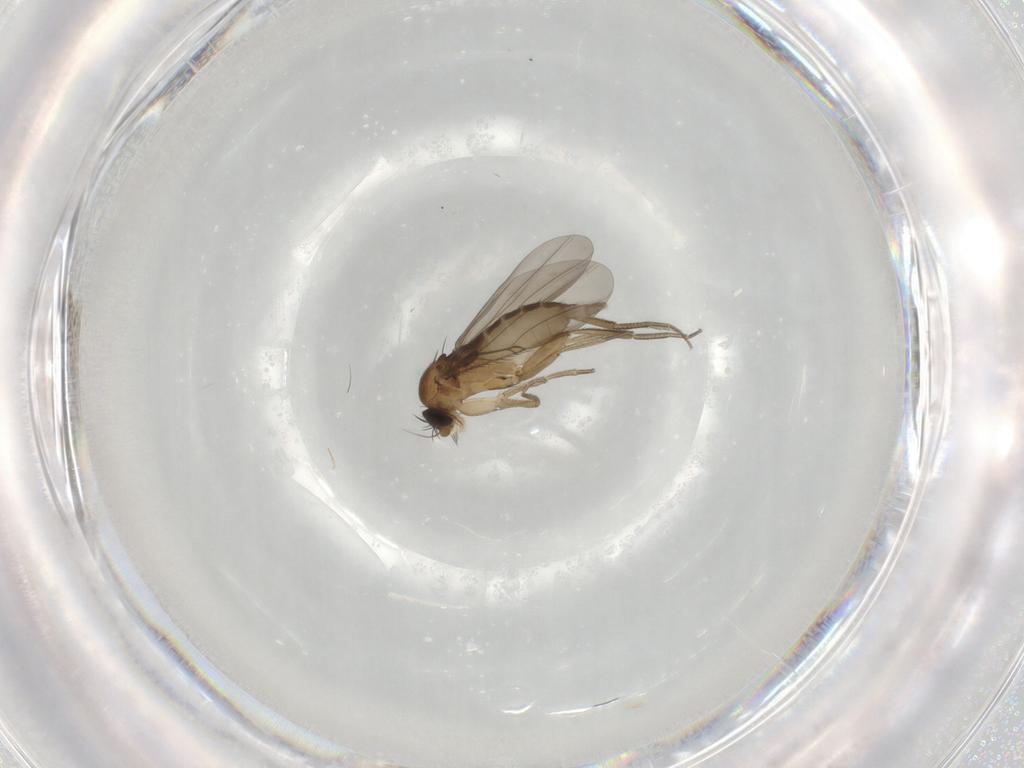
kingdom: Animalia
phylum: Arthropoda
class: Insecta
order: Diptera
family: Phoridae
